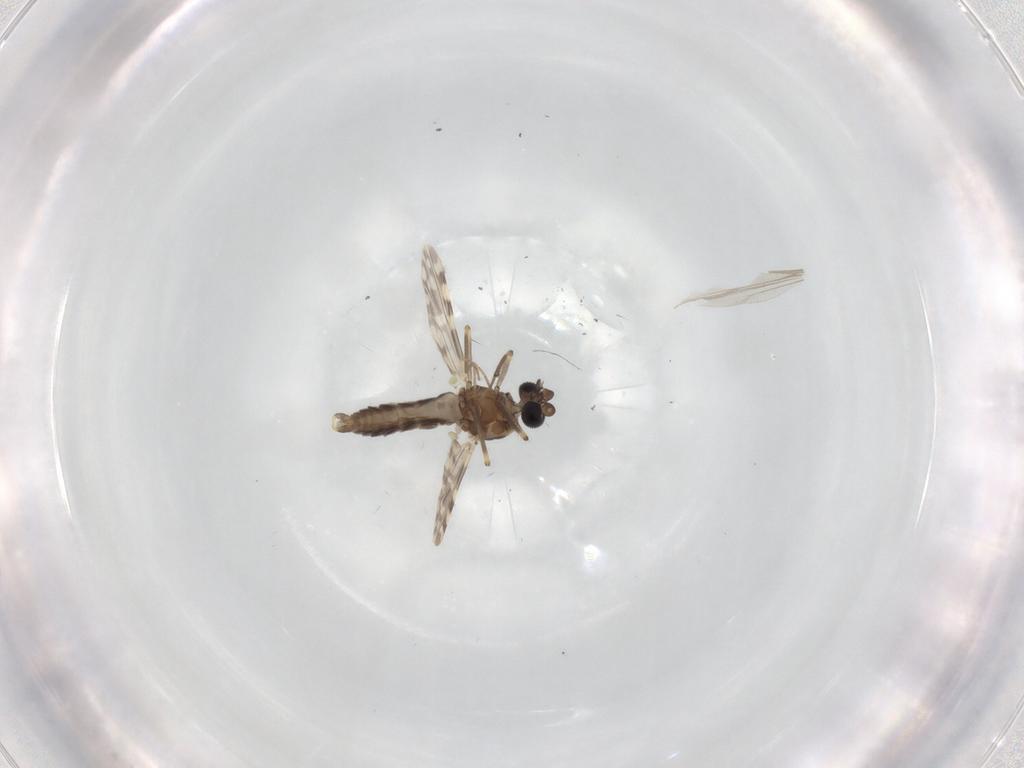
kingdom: Animalia
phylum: Arthropoda
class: Insecta
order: Diptera
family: Ceratopogonidae
